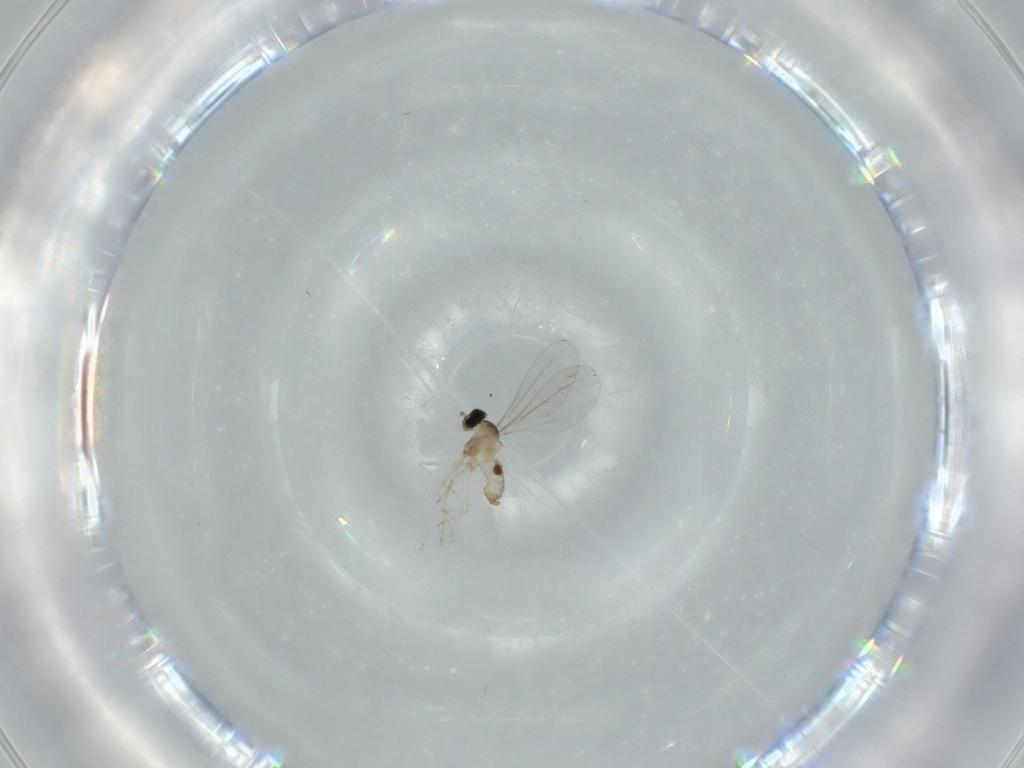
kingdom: Animalia
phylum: Arthropoda
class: Insecta
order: Diptera
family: Cecidomyiidae
